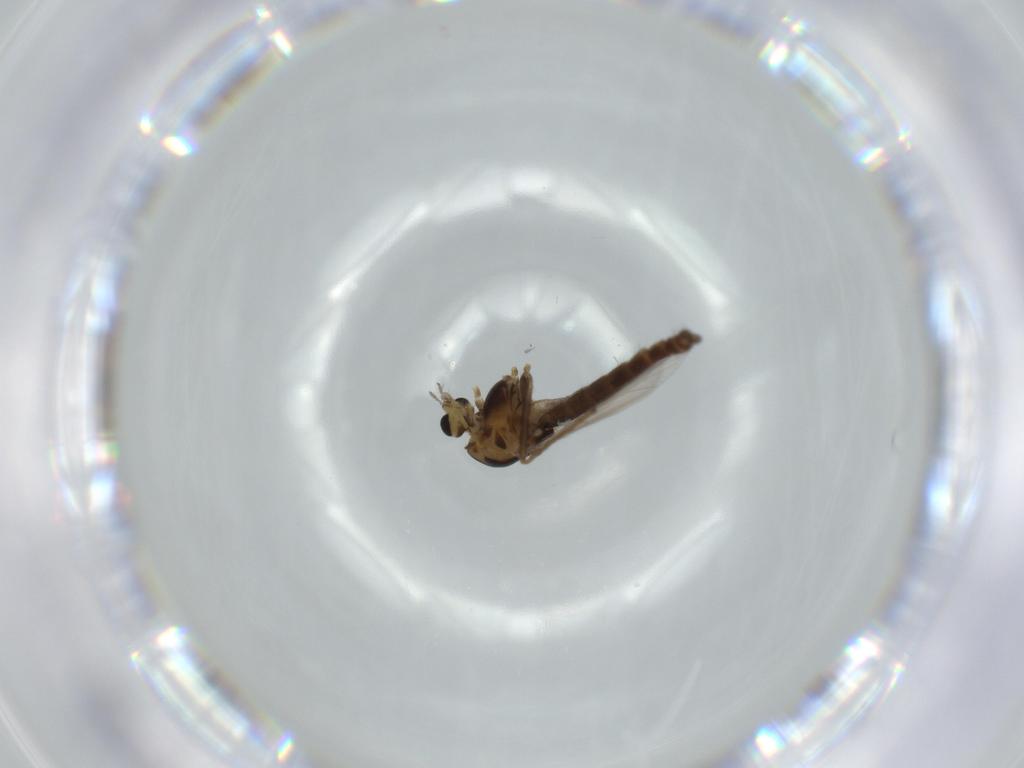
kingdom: Animalia
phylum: Arthropoda
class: Insecta
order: Diptera
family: Chironomidae
